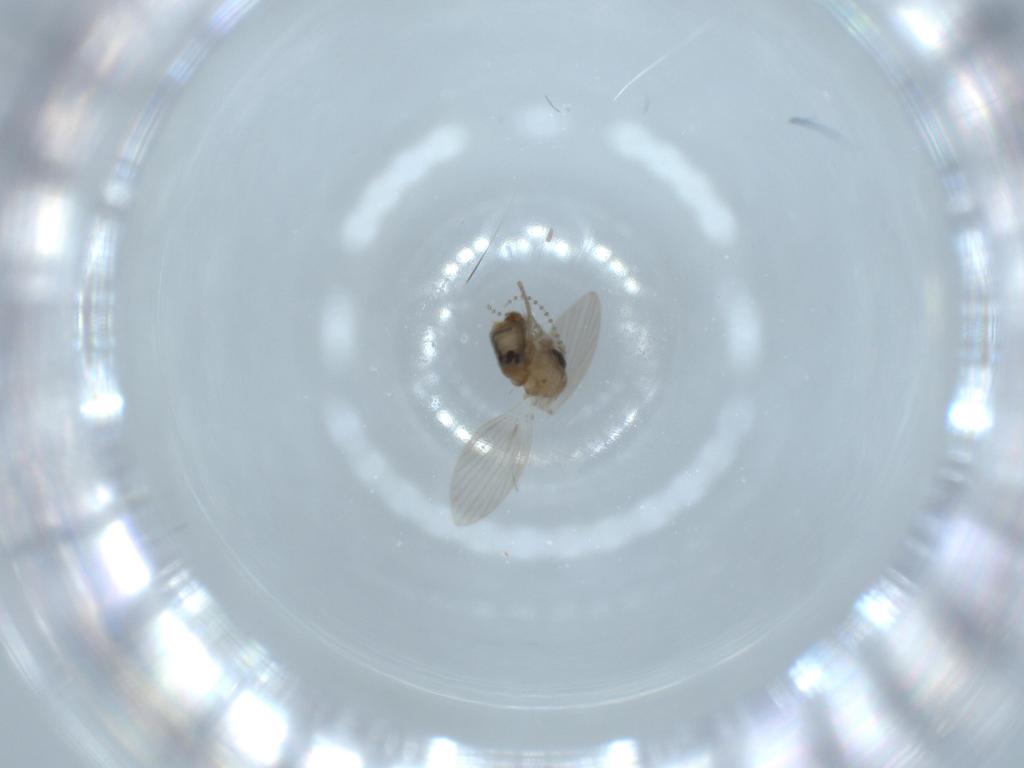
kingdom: Animalia
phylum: Arthropoda
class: Insecta
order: Diptera
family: Psychodidae
